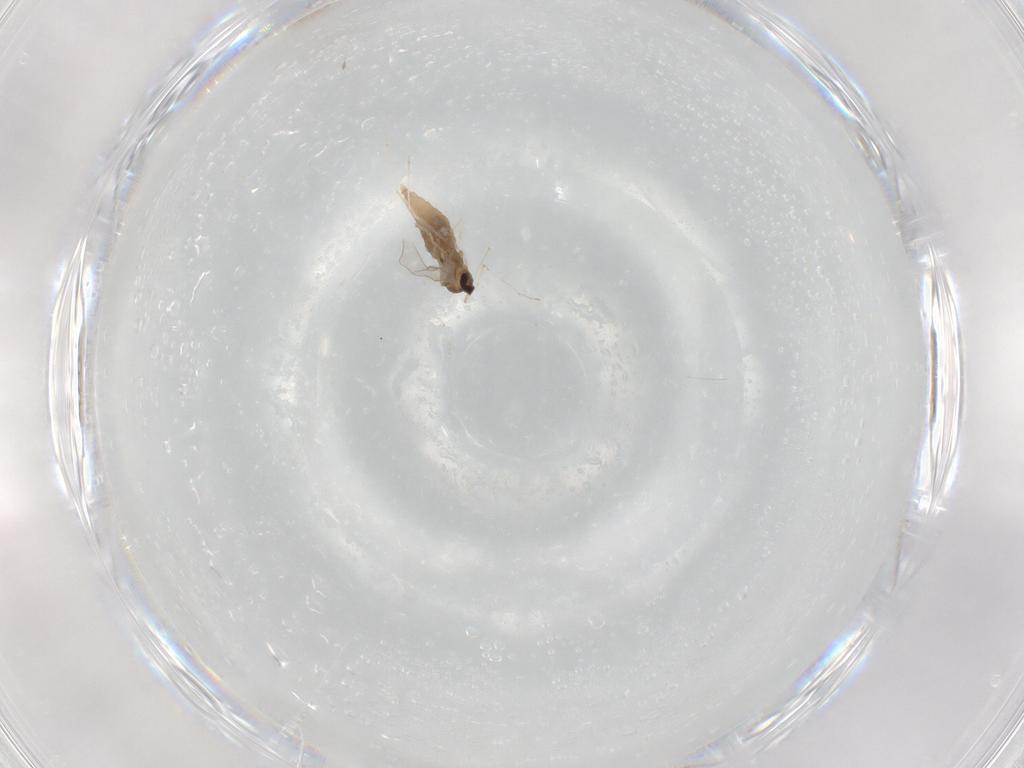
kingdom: Animalia
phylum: Arthropoda
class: Insecta
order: Diptera
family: Cecidomyiidae
